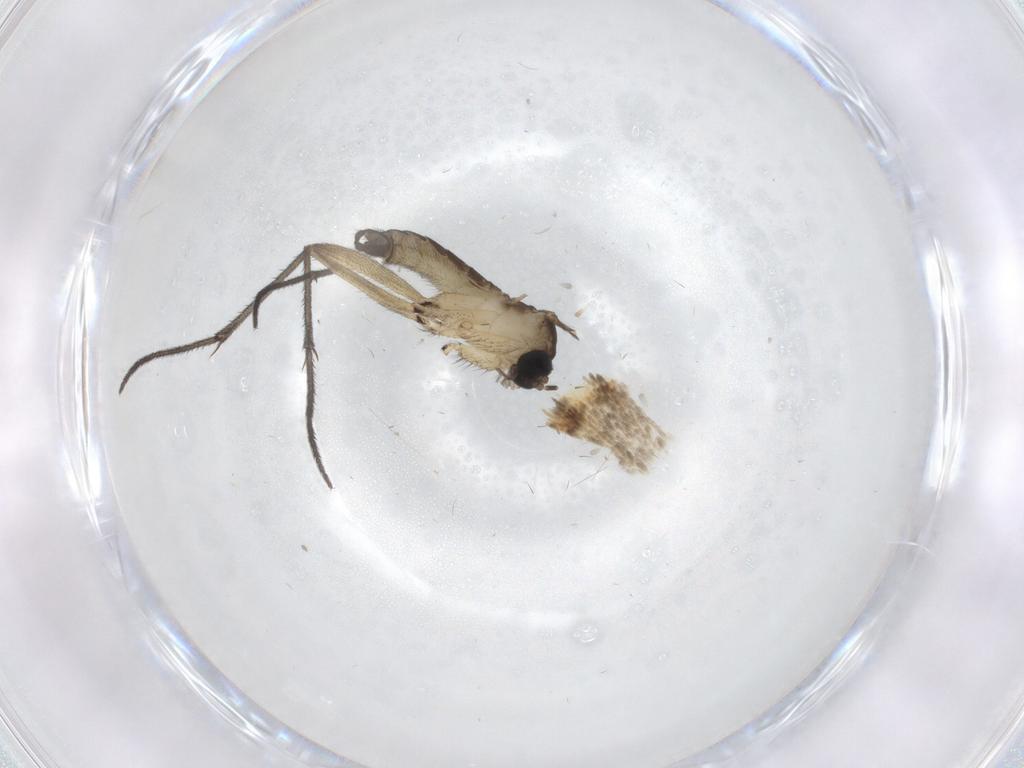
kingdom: Animalia
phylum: Arthropoda
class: Insecta
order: Diptera
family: Sciaridae
